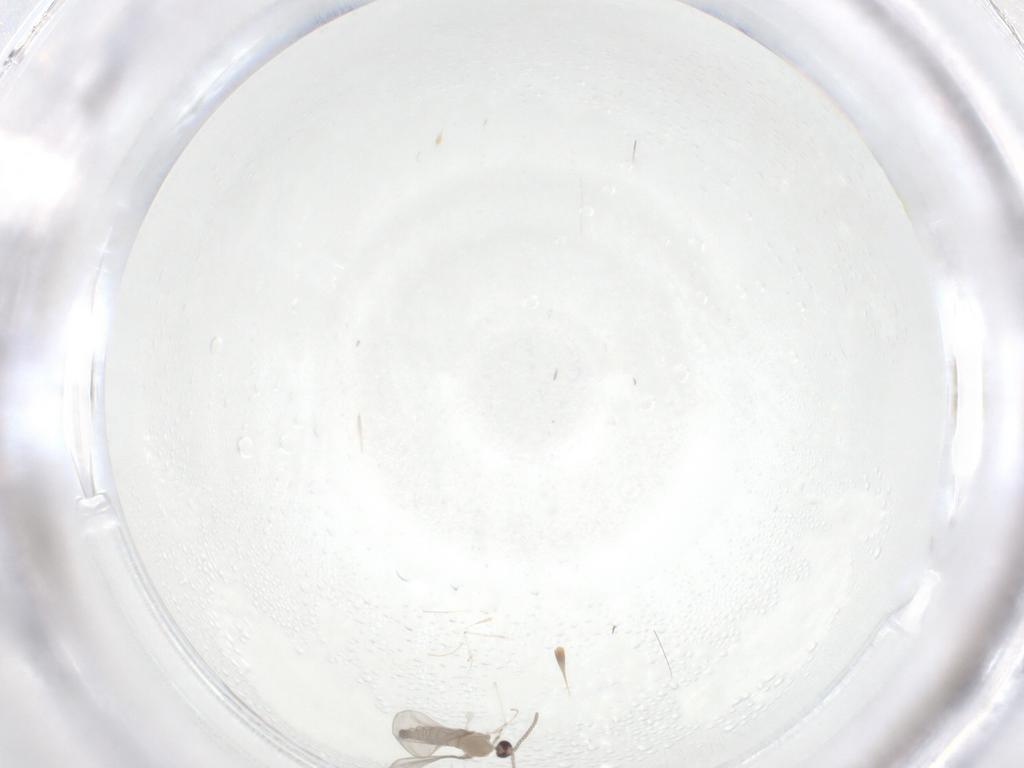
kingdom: Animalia
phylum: Arthropoda
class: Insecta
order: Diptera
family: Cecidomyiidae
